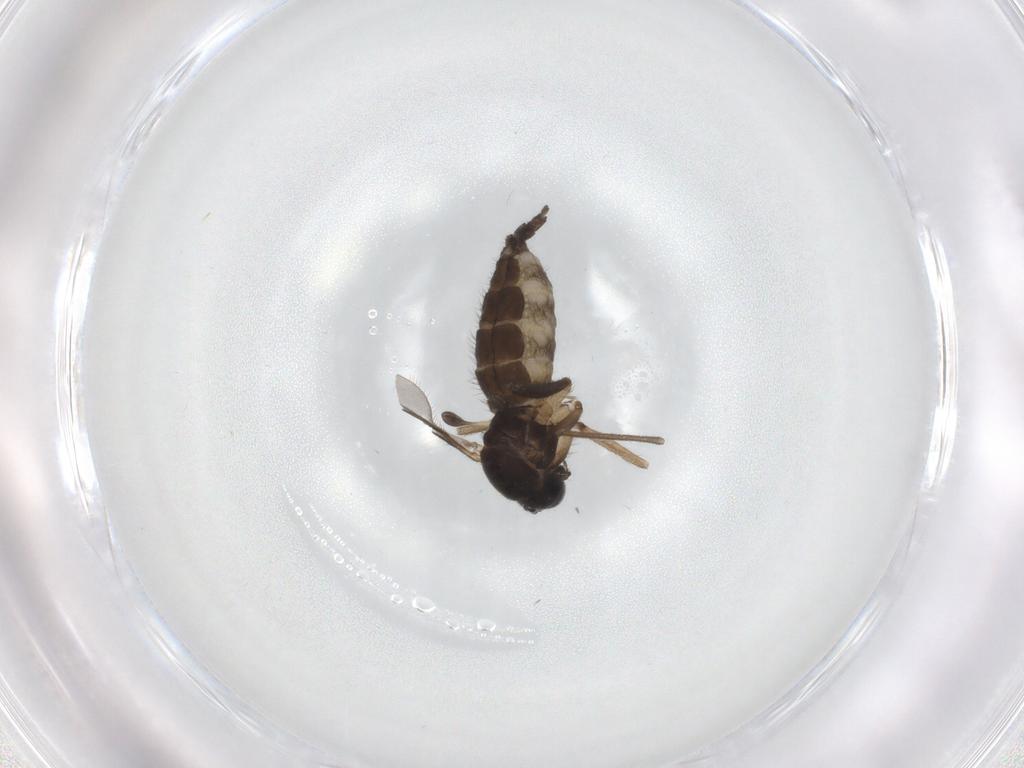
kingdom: Animalia
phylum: Arthropoda
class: Insecta
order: Diptera
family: Sciaridae
